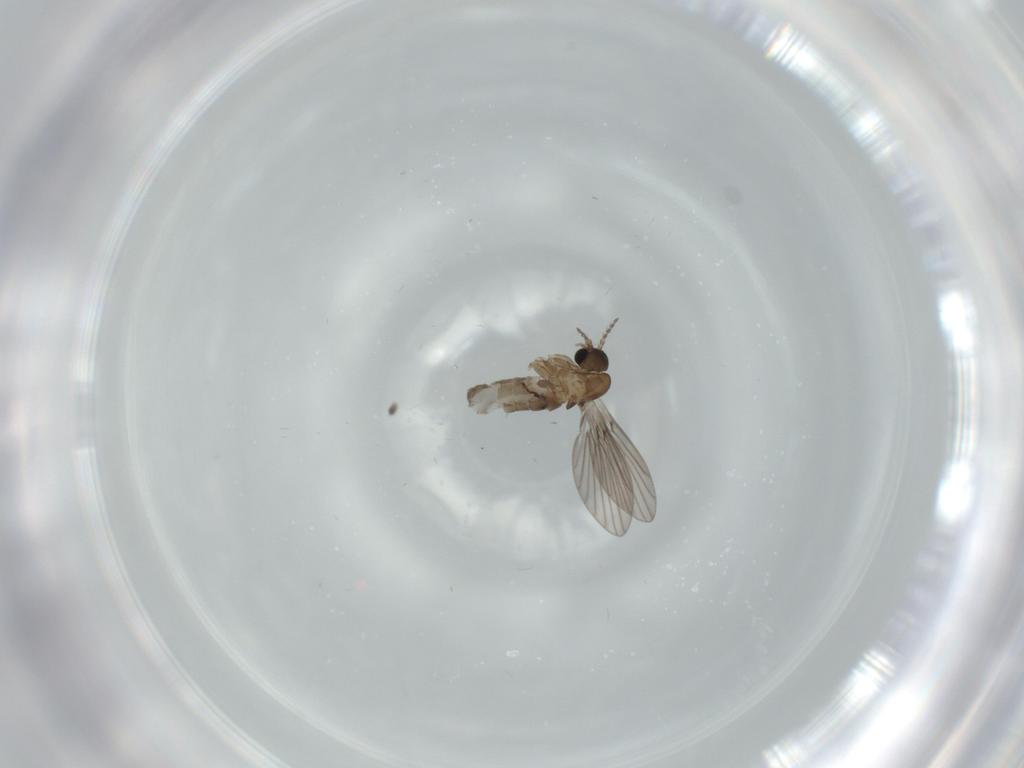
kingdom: Animalia
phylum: Arthropoda
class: Insecta
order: Diptera
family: Psychodidae
